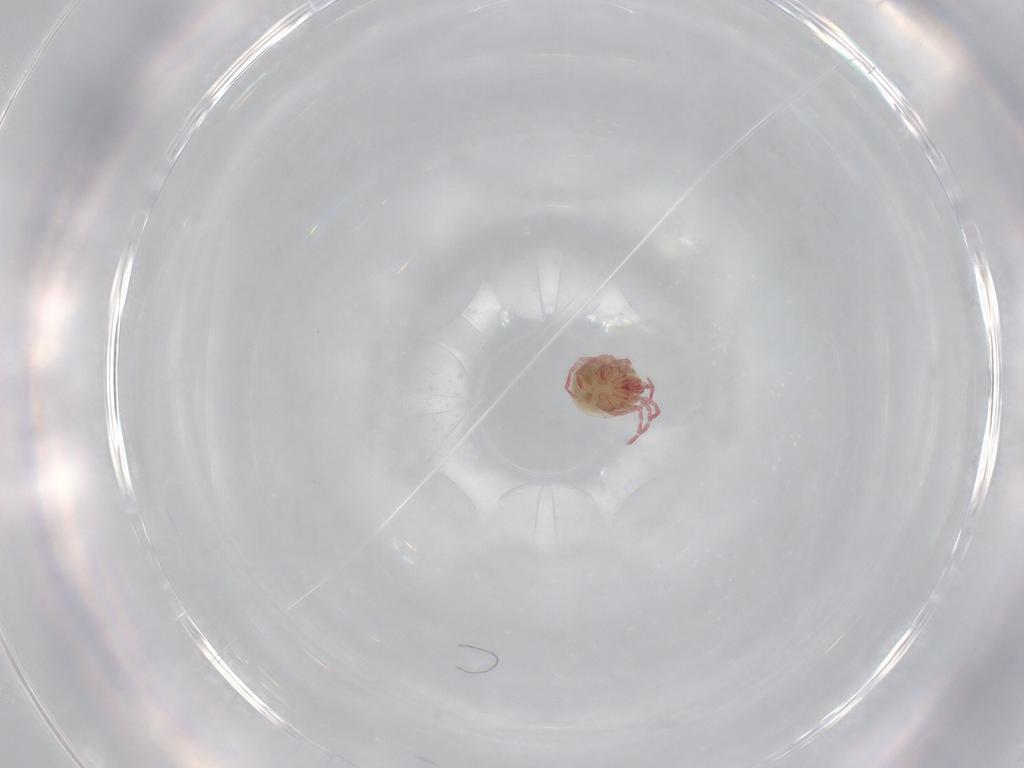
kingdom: Animalia
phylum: Arthropoda
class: Arachnida
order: Trombidiformes
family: Pionidae
